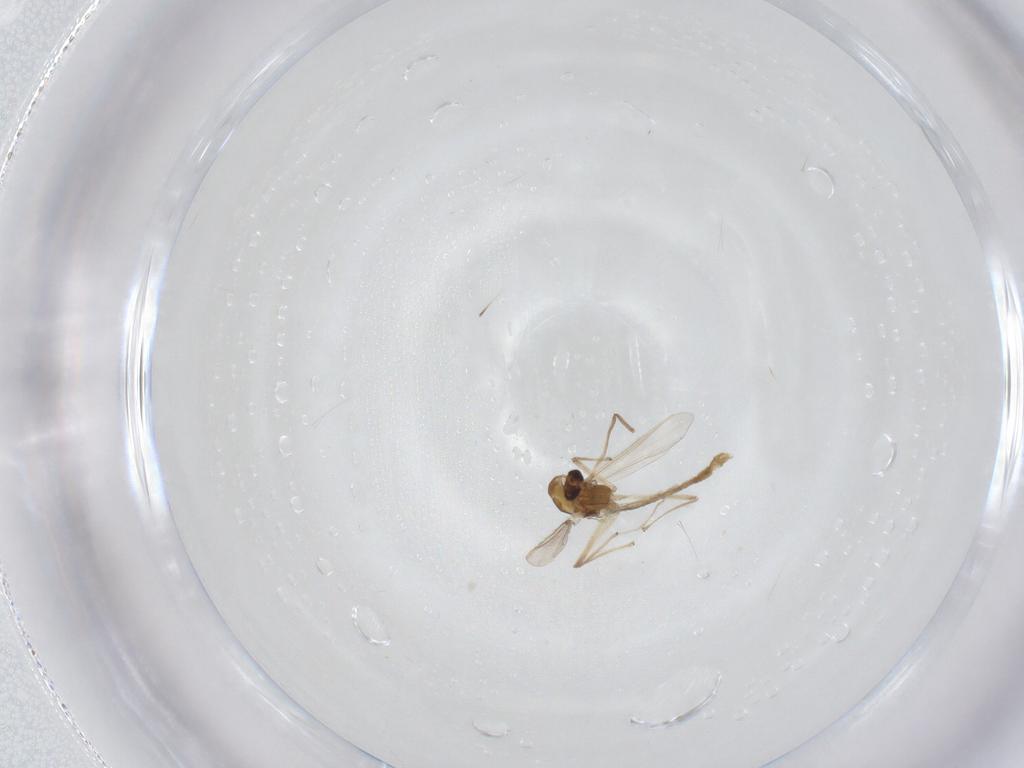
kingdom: Animalia
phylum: Arthropoda
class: Insecta
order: Diptera
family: Chironomidae
